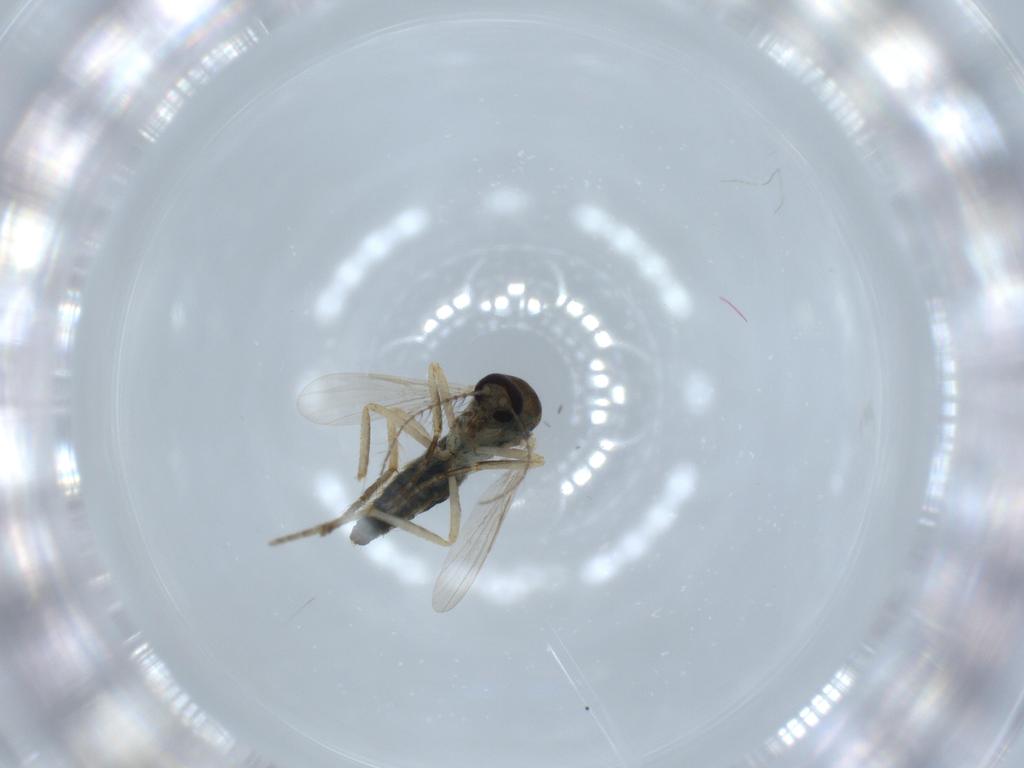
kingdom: Animalia
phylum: Arthropoda
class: Insecta
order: Diptera
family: Ceratopogonidae
